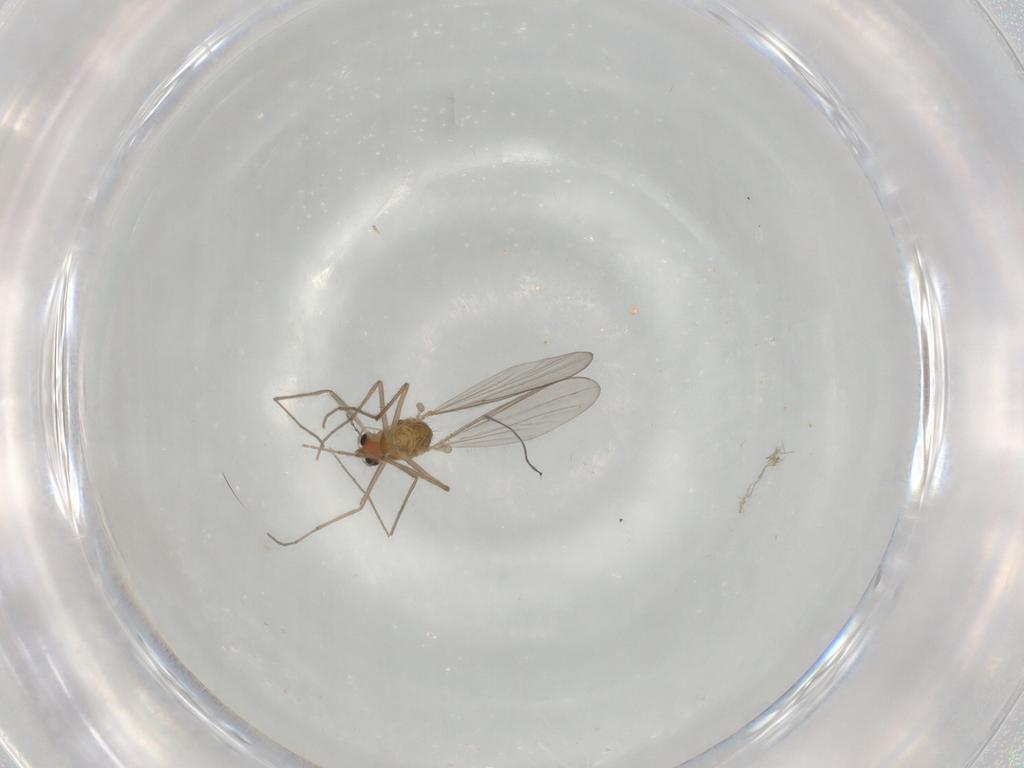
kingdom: Animalia
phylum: Arthropoda
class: Insecta
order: Diptera
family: Chironomidae
